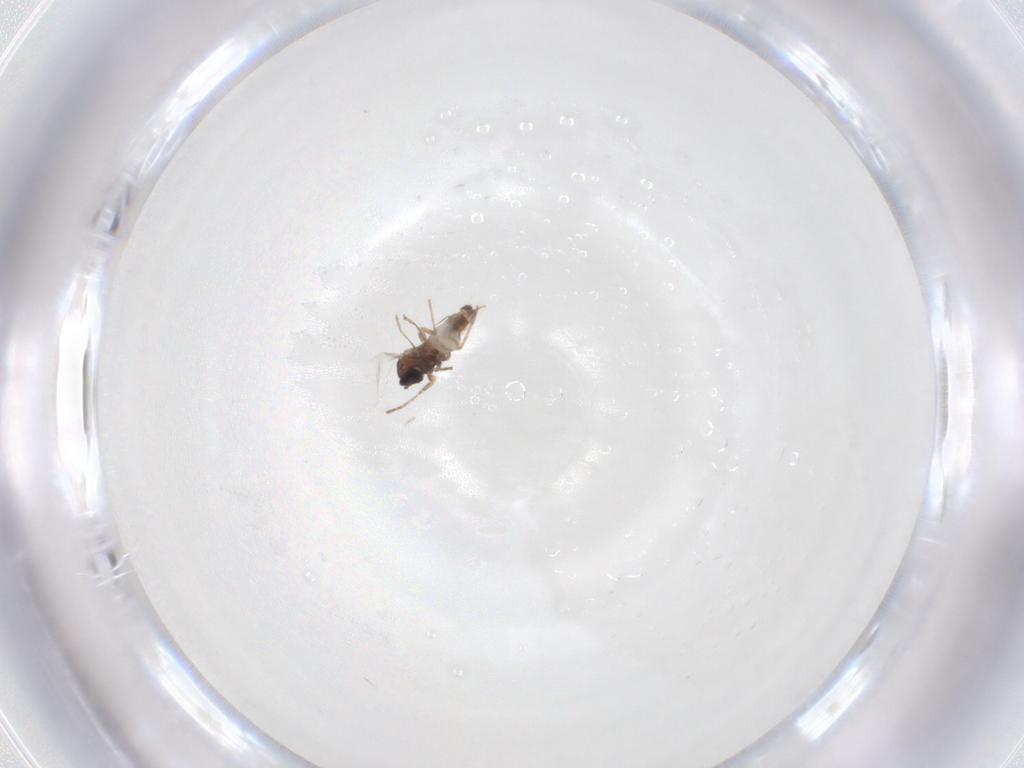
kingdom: Animalia
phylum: Arthropoda
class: Insecta
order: Diptera
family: Cecidomyiidae
